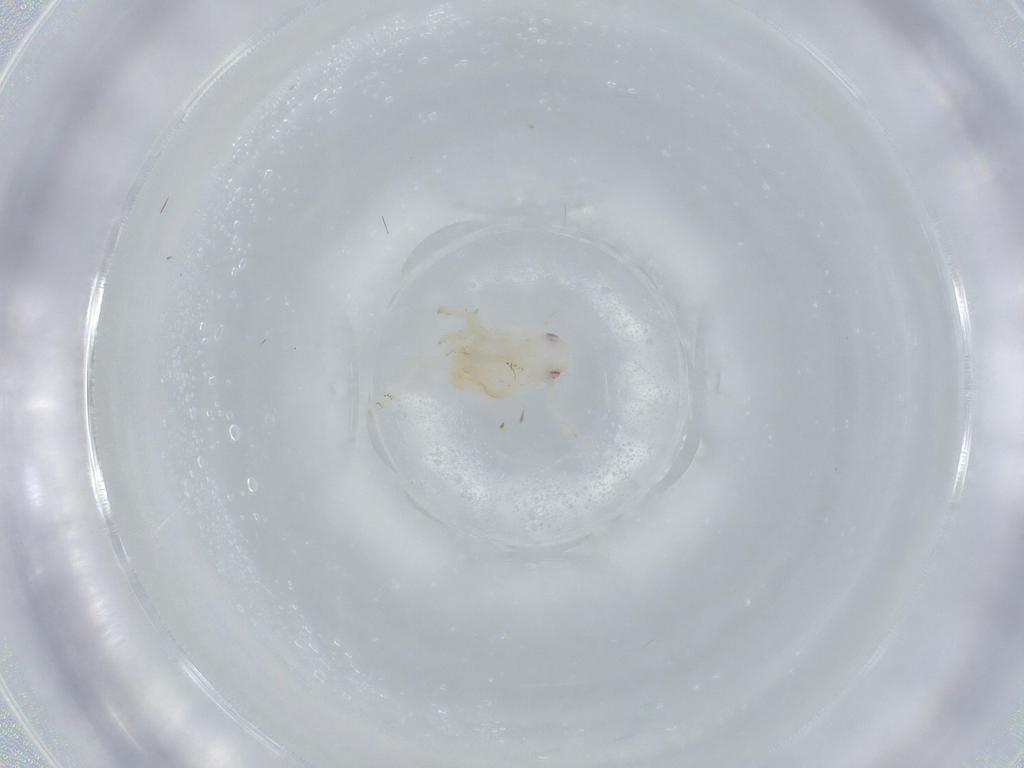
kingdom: Animalia
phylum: Arthropoda
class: Insecta
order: Hemiptera
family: Flatidae
